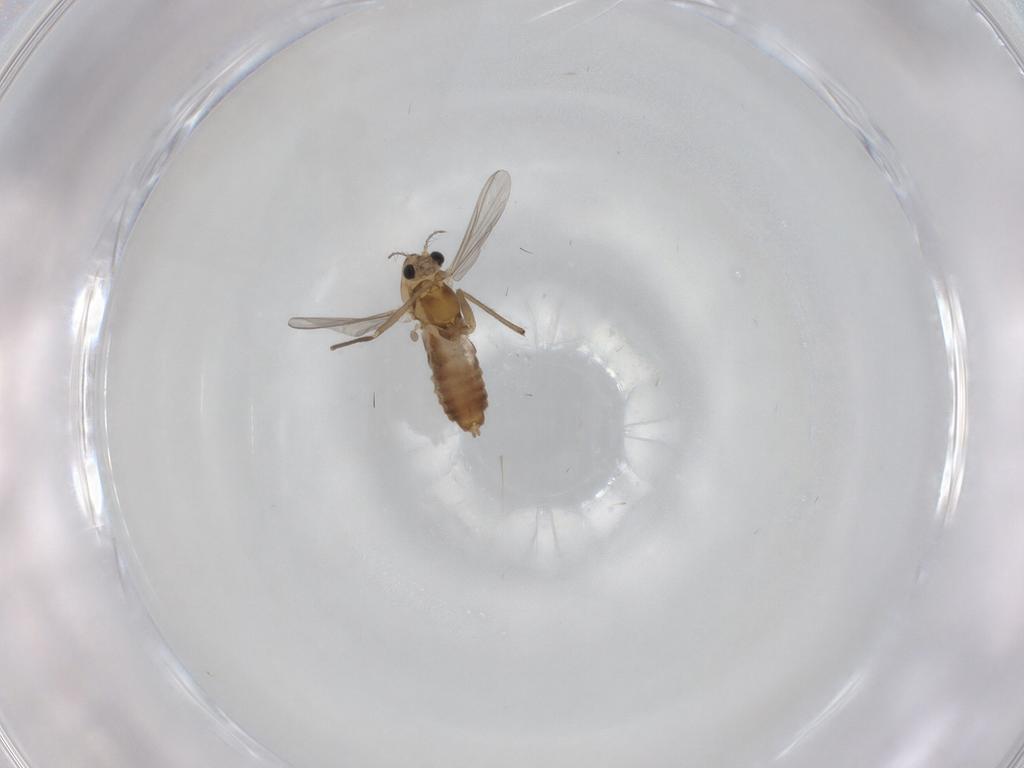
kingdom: Animalia
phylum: Arthropoda
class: Insecta
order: Diptera
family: Chironomidae
